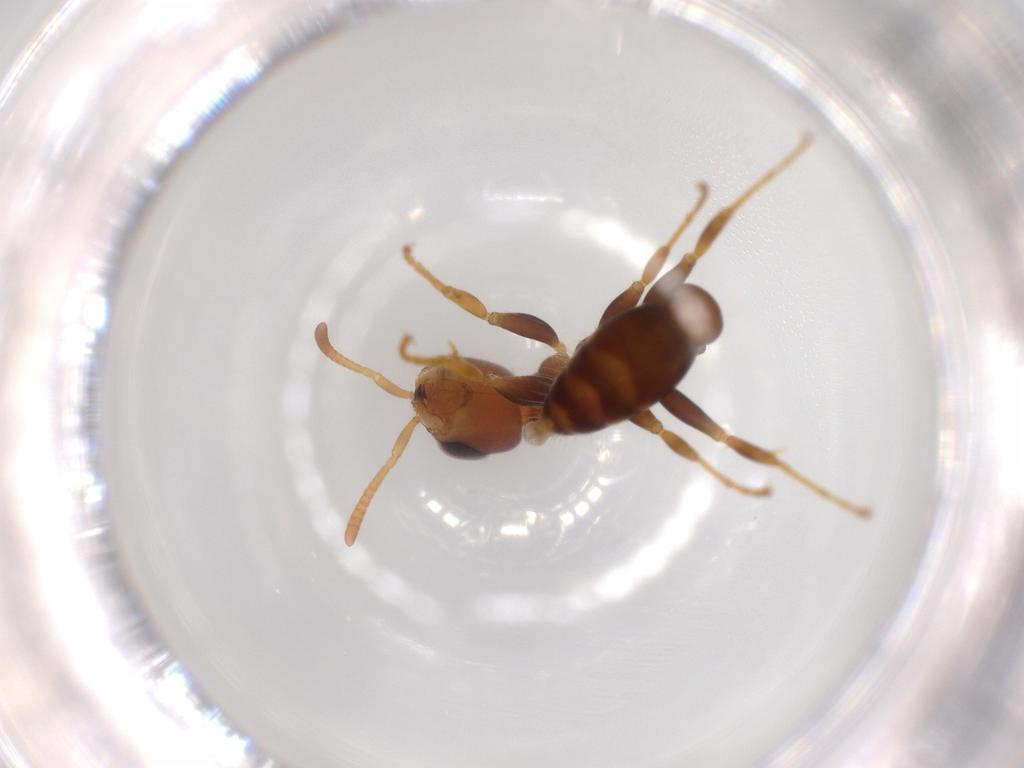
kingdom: Animalia
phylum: Arthropoda
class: Insecta
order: Hymenoptera
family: Formicidae
